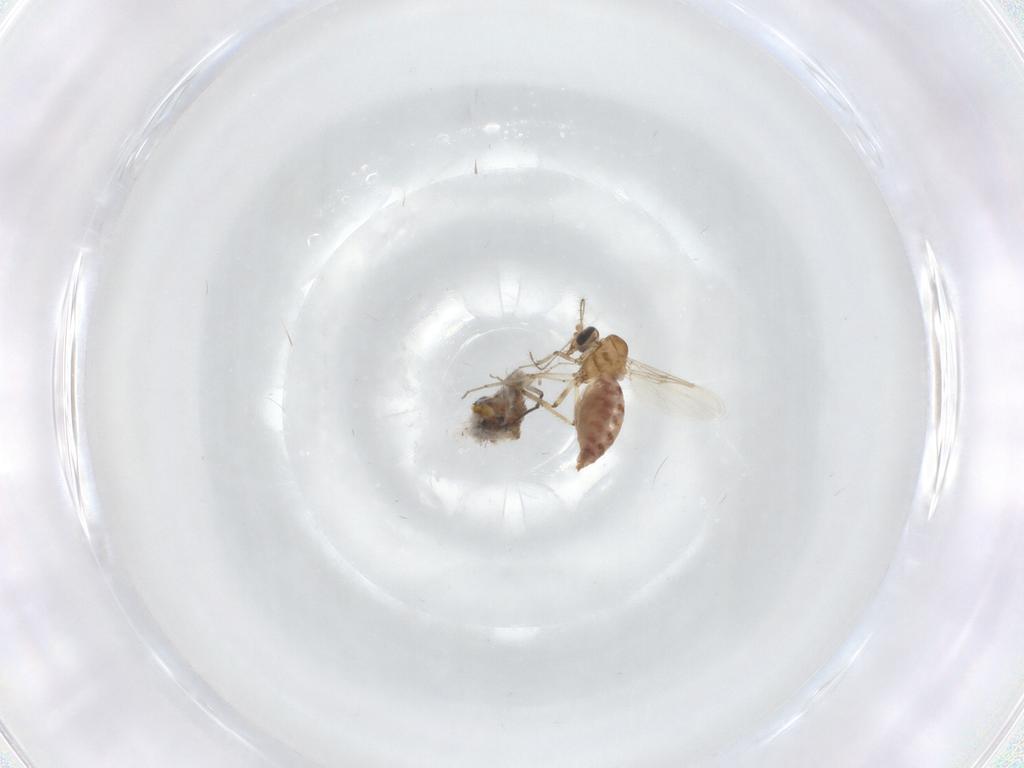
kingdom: Animalia
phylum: Arthropoda
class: Insecta
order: Diptera
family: Ceratopogonidae
